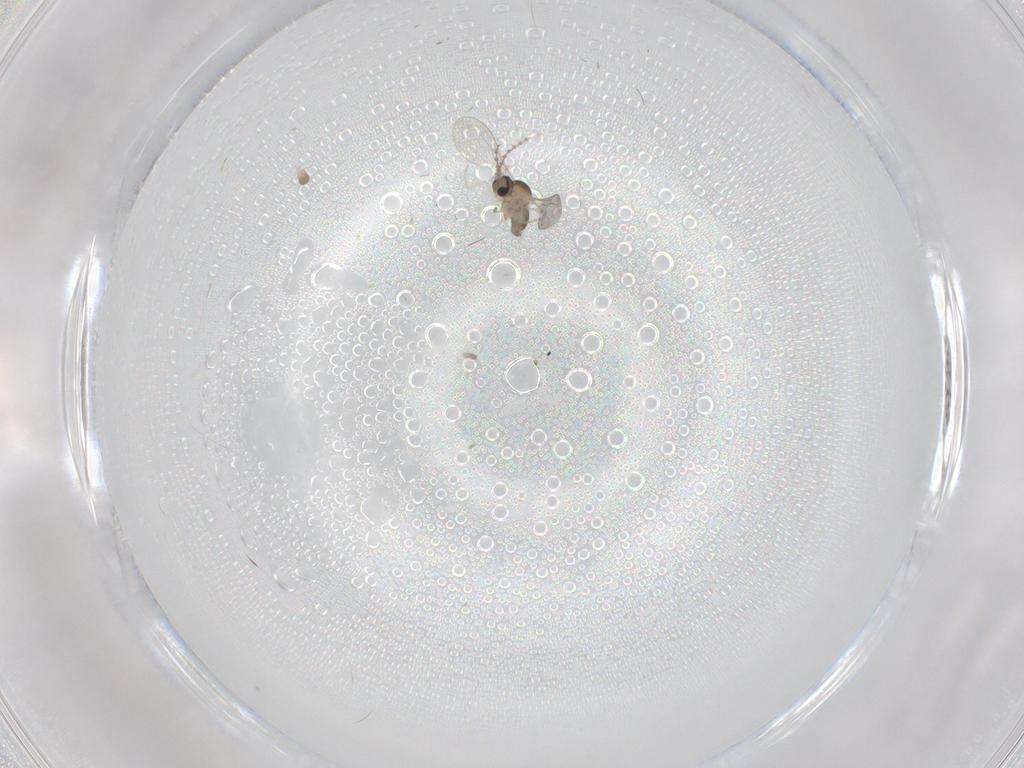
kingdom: Animalia
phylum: Arthropoda
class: Insecta
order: Diptera
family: Cecidomyiidae
